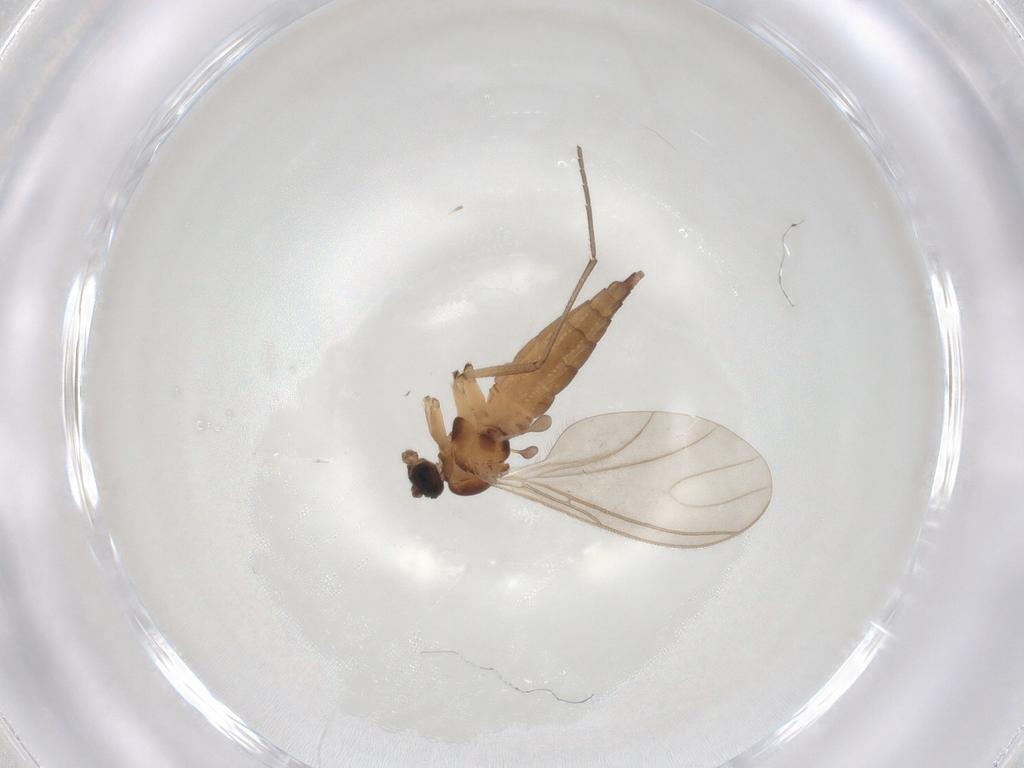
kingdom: Animalia
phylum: Arthropoda
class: Insecta
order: Diptera
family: Sciaridae
